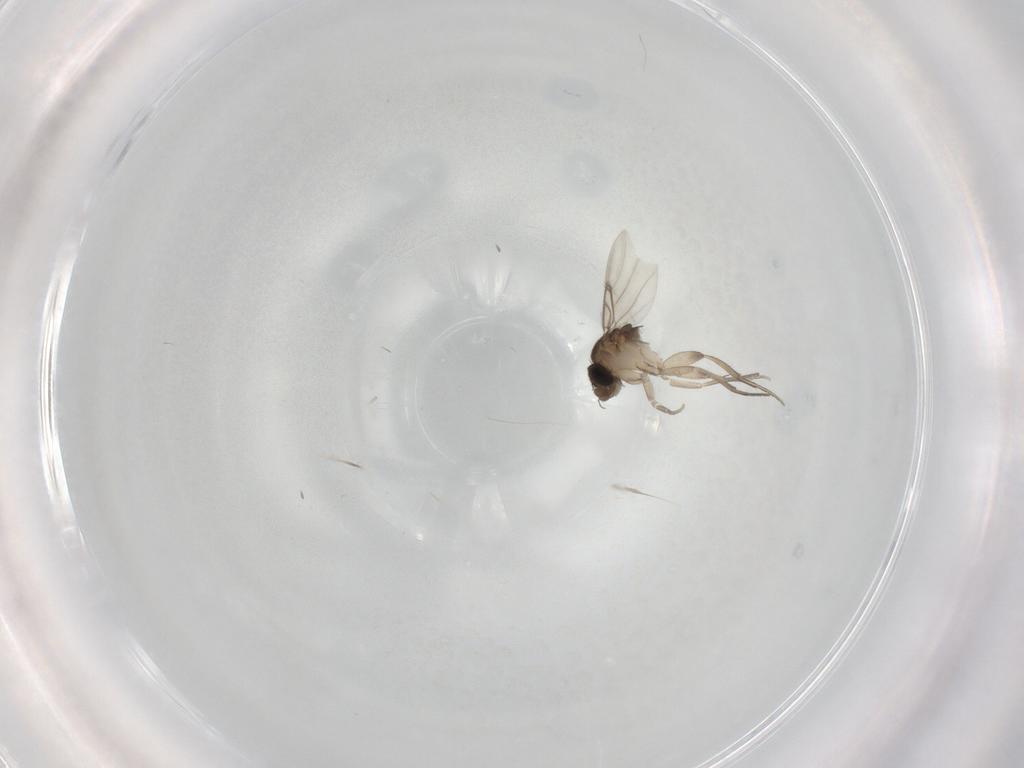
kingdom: Animalia
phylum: Arthropoda
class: Insecta
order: Diptera
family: Phoridae
